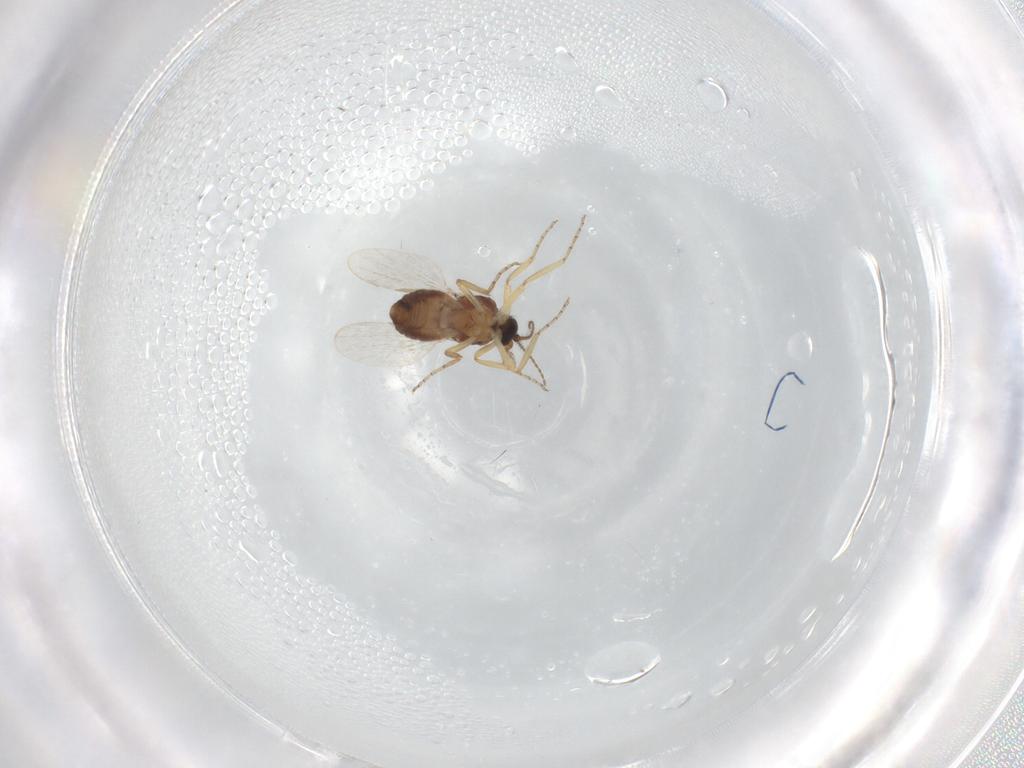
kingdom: Animalia
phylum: Arthropoda
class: Insecta
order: Diptera
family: Ceratopogonidae
